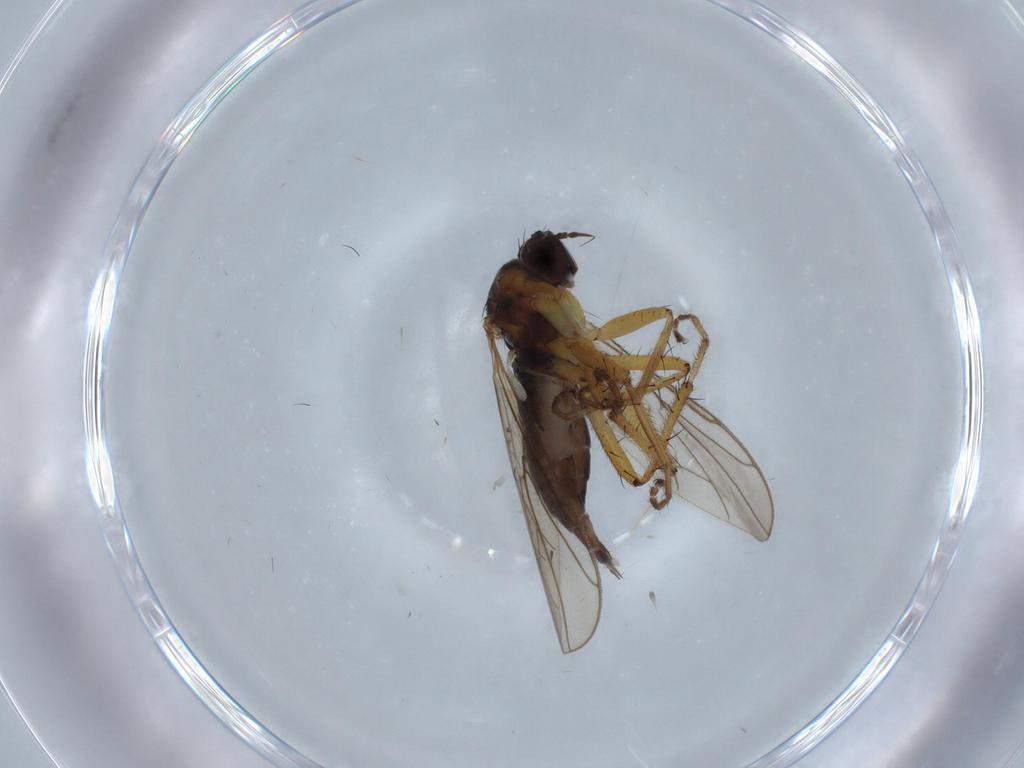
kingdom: Animalia
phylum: Arthropoda
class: Insecta
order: Diptera
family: Hybotidae
